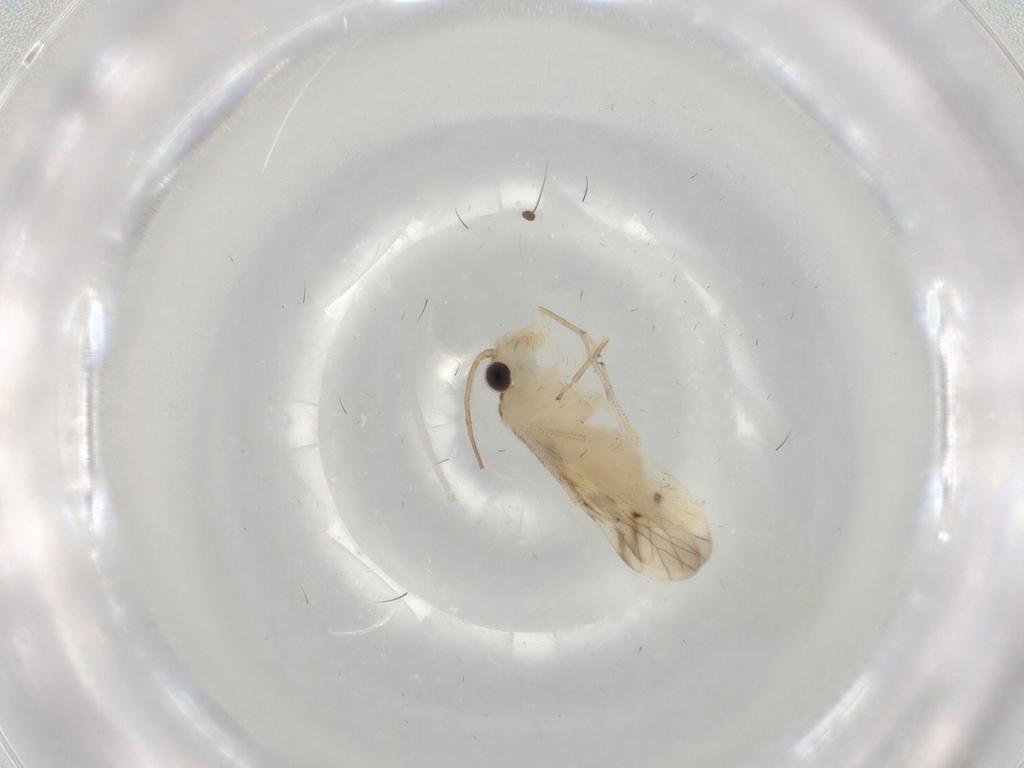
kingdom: Animalia
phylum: Arthropoda
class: Insecta
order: Psocodea
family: Caeciliusidae
